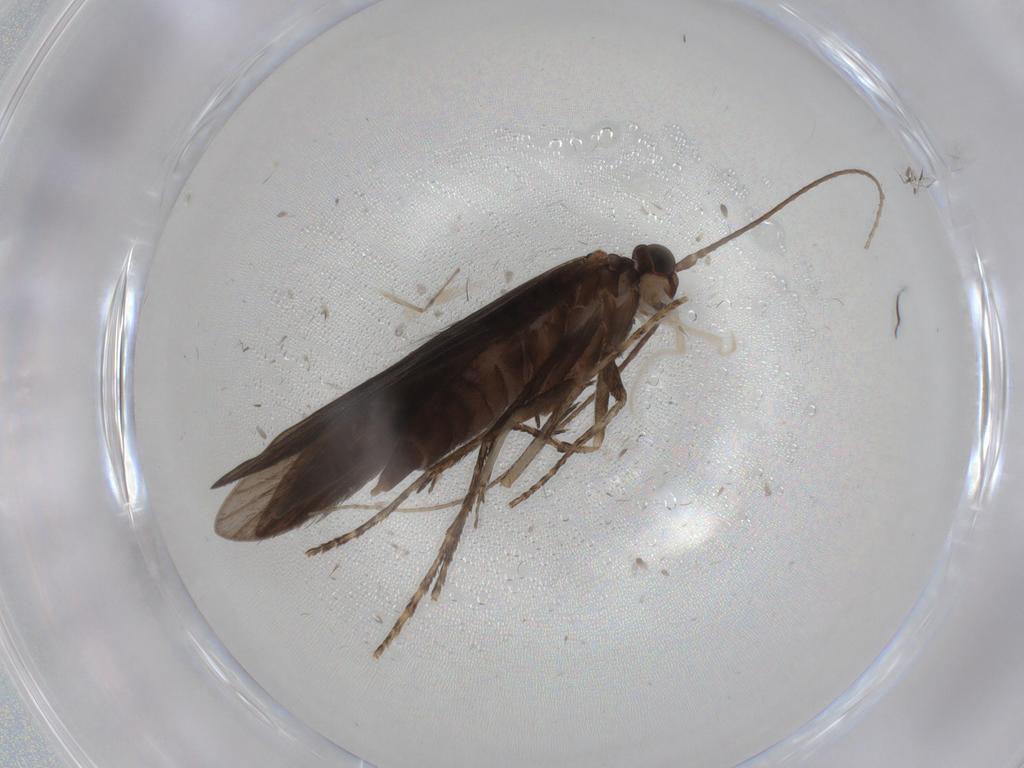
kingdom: Animalia
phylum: Arthropoda
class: Insecta
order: Trichoptera
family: Xiphocentronidae
